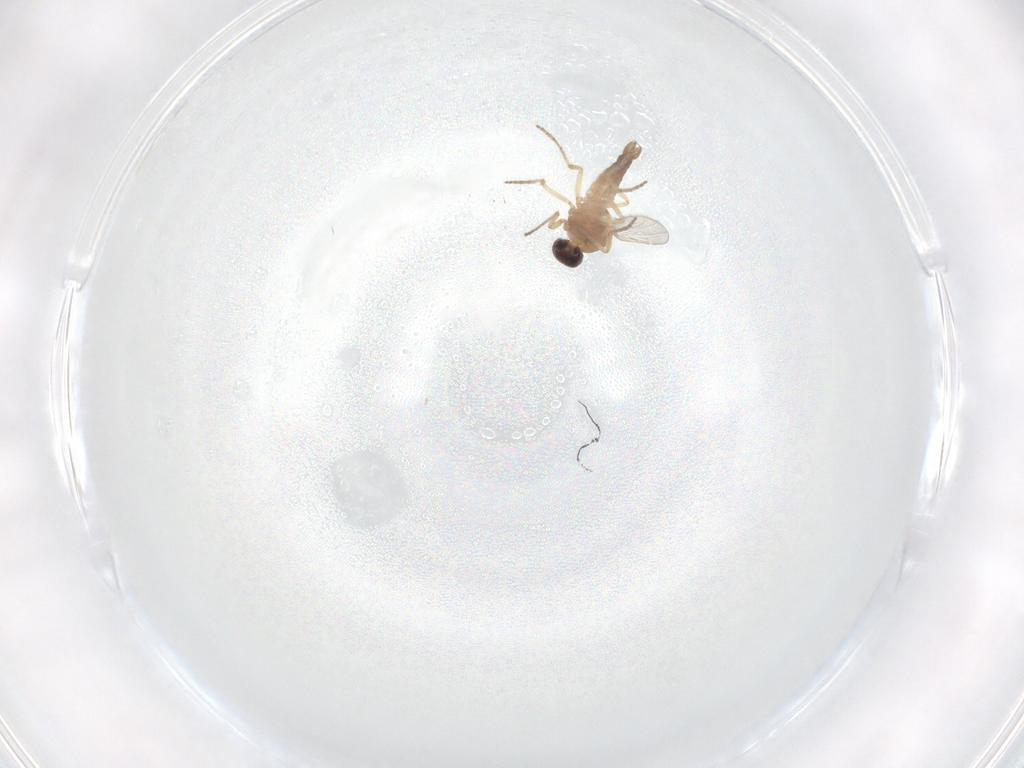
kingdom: Animalia
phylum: Arthropoda
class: Insecta
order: Diptera
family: Ceratopogonidae
